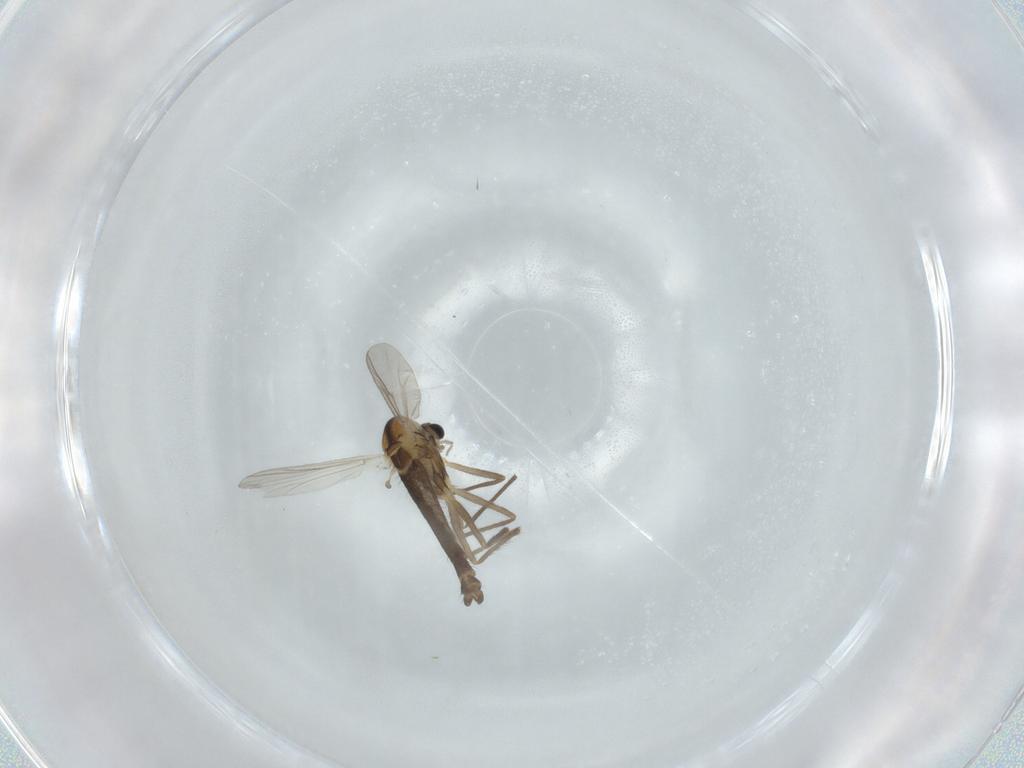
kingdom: Animalia
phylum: Arthropoda
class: Insecta
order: Diptera
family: Chironomidae
